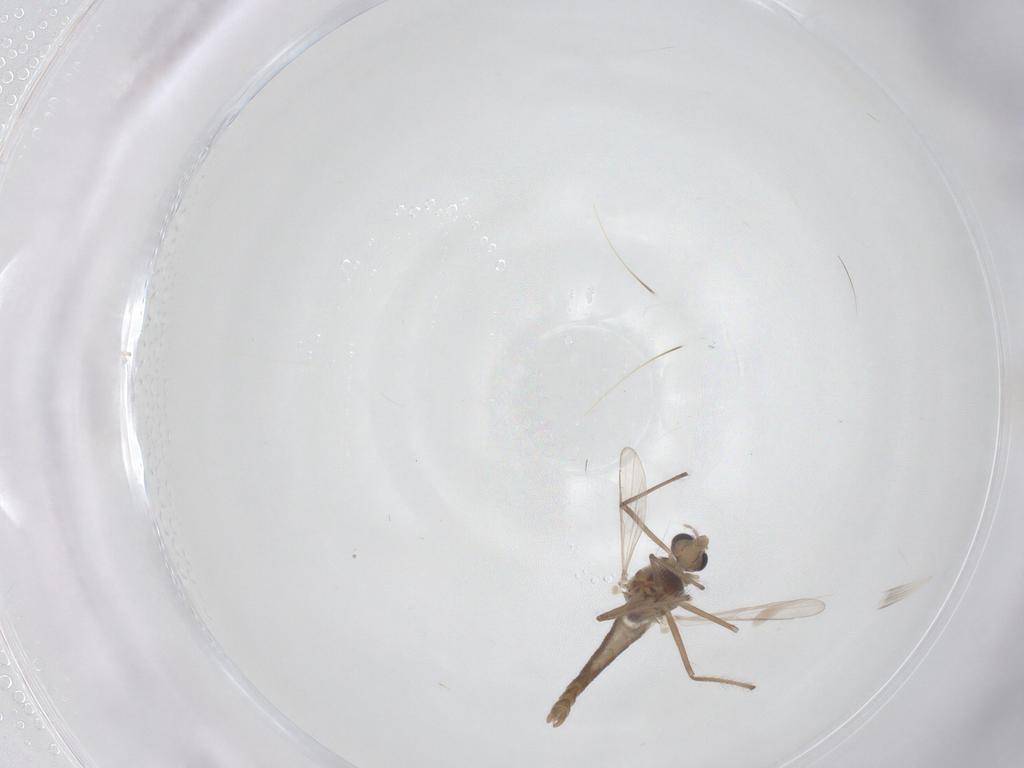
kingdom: Animalia
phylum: Arthropoda
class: Insecta
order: Diptera
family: Chironomidae
